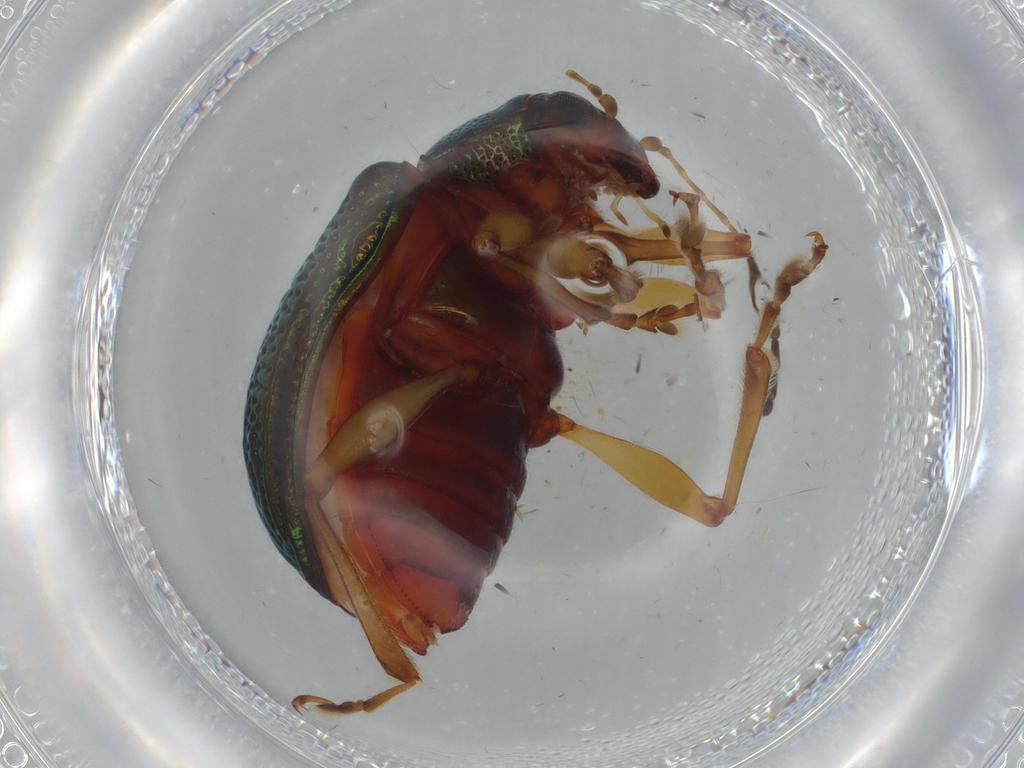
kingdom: Animalia
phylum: Arthropoda
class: Insecta
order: Coleoptera
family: Chrysomelidae
